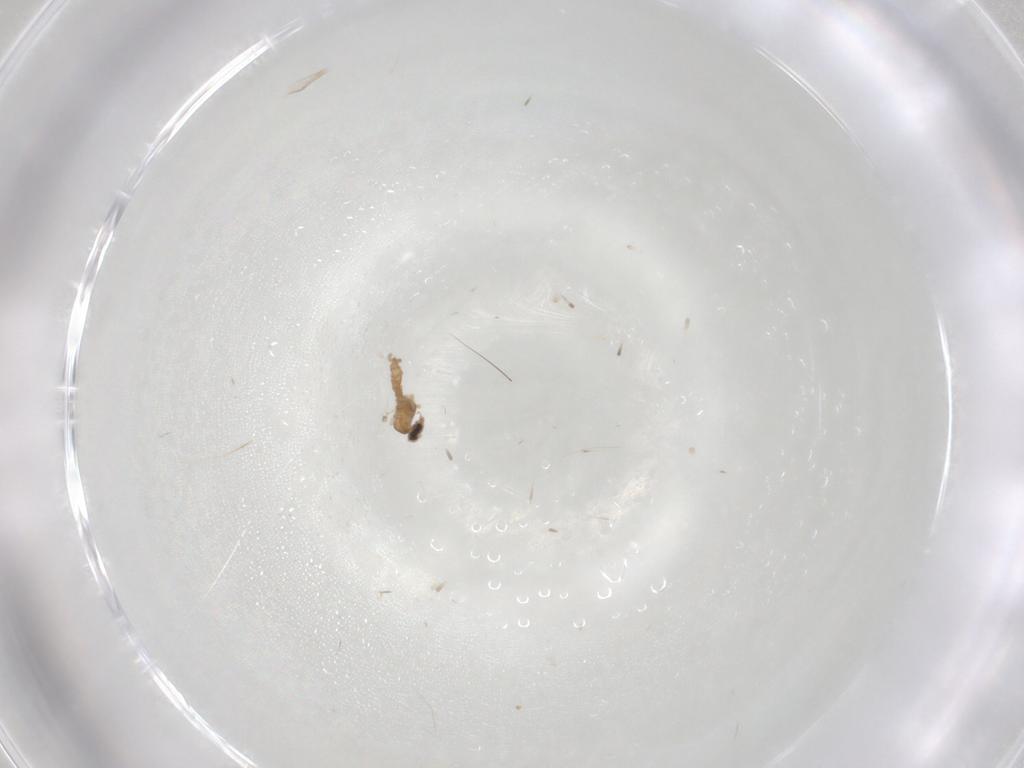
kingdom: Animalia
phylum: Arthropoda
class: Insecta
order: Diptera
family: Cecidomyiidae
